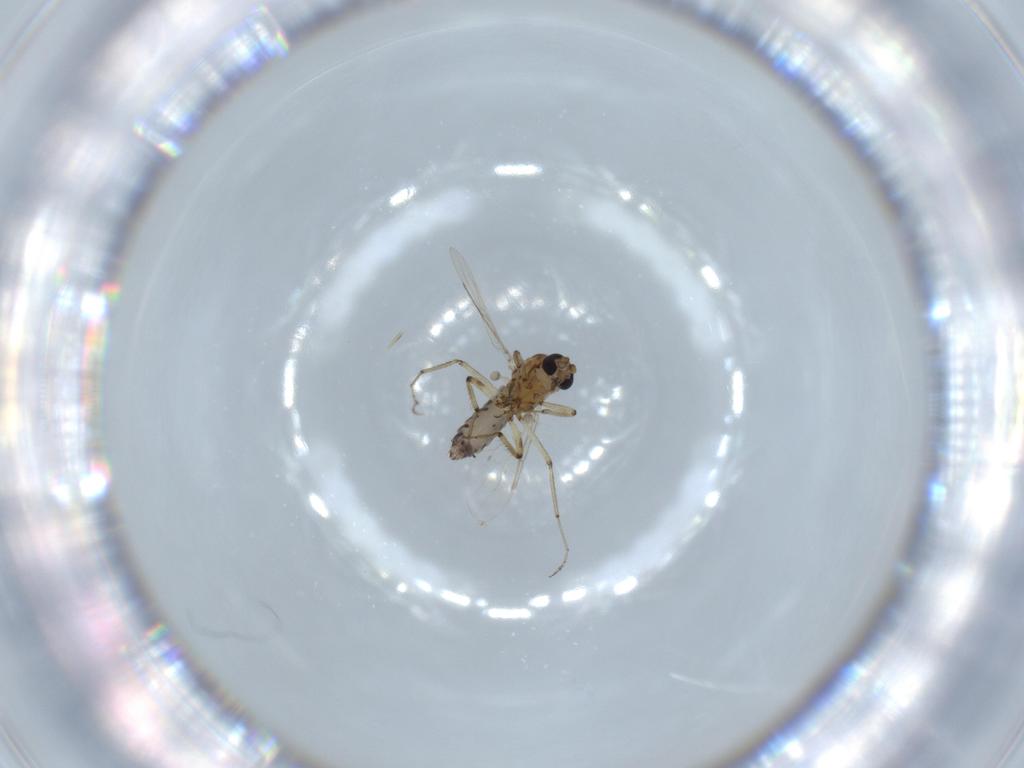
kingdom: Animalia
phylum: Arthropoda
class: Insecta
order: Diptera
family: Ceratopogonidae
